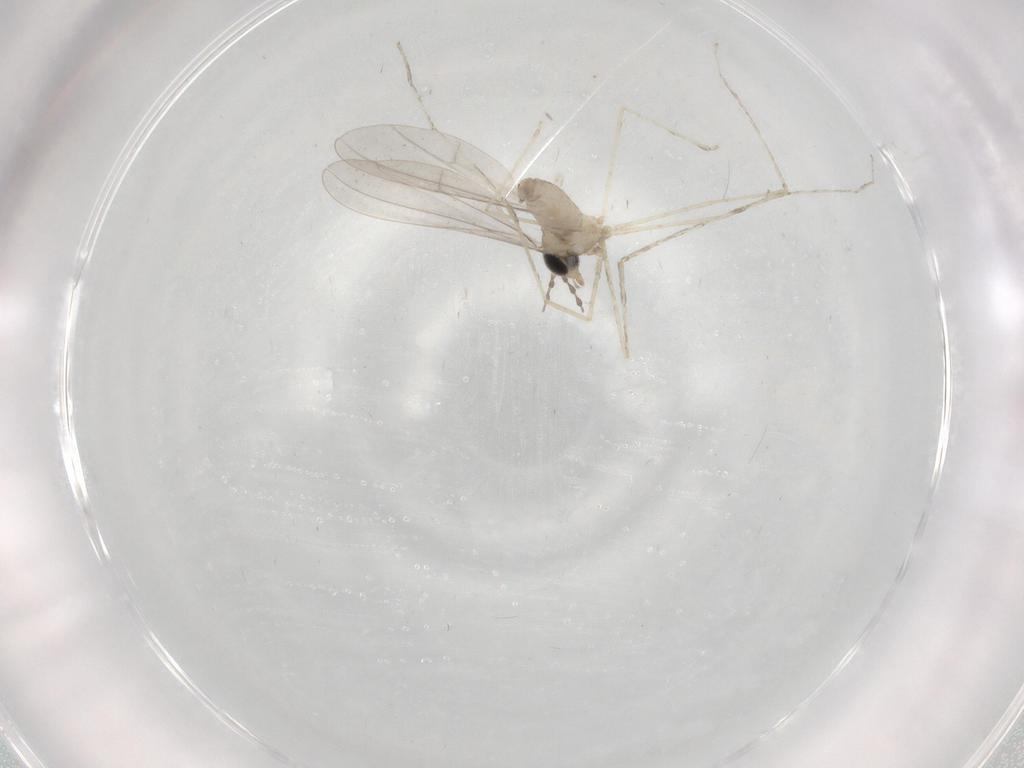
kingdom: Animalia
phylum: Arthropoda
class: Insecta
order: Diptera
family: Cecidomyiidae
